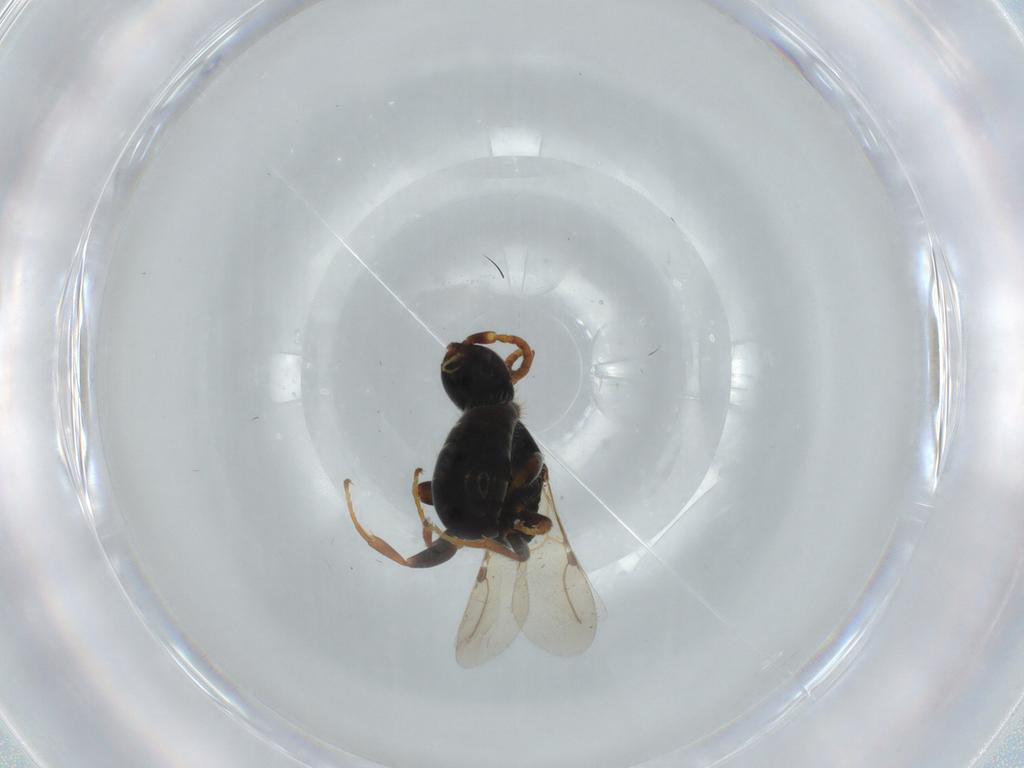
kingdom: Animalia
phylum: Arthropoda
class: Insecta
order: Hymenoptera
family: Bethylidae
